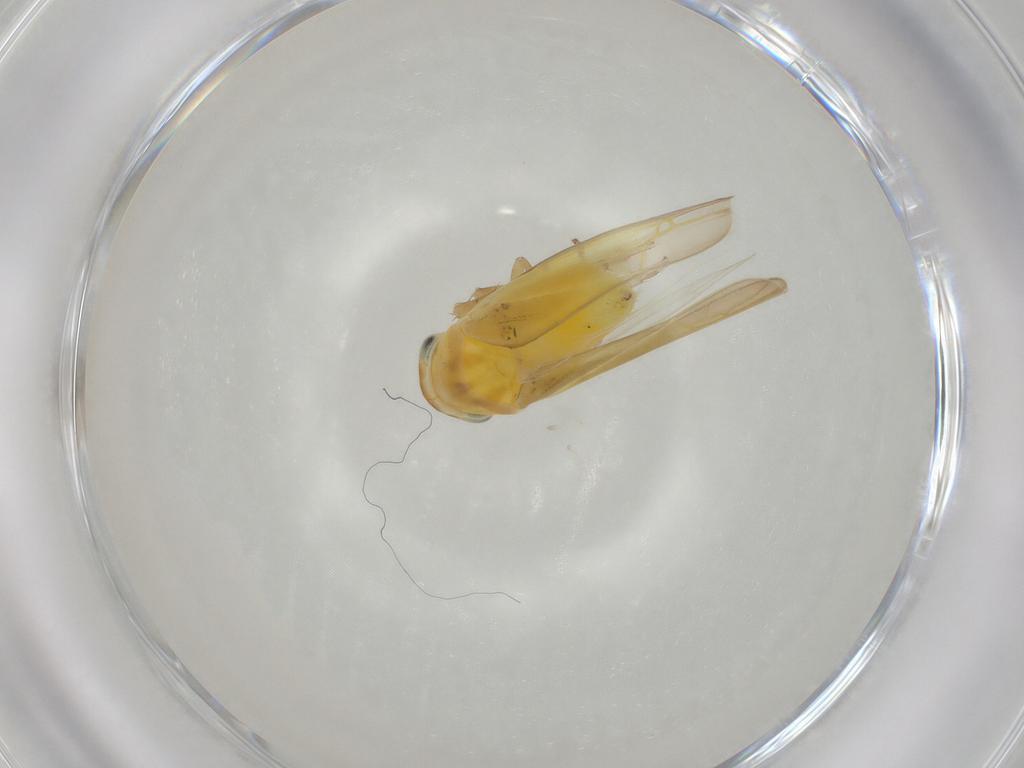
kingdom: Animalia
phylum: Arthropoda
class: Insecta
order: Hemiptera
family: Cicadellidae
